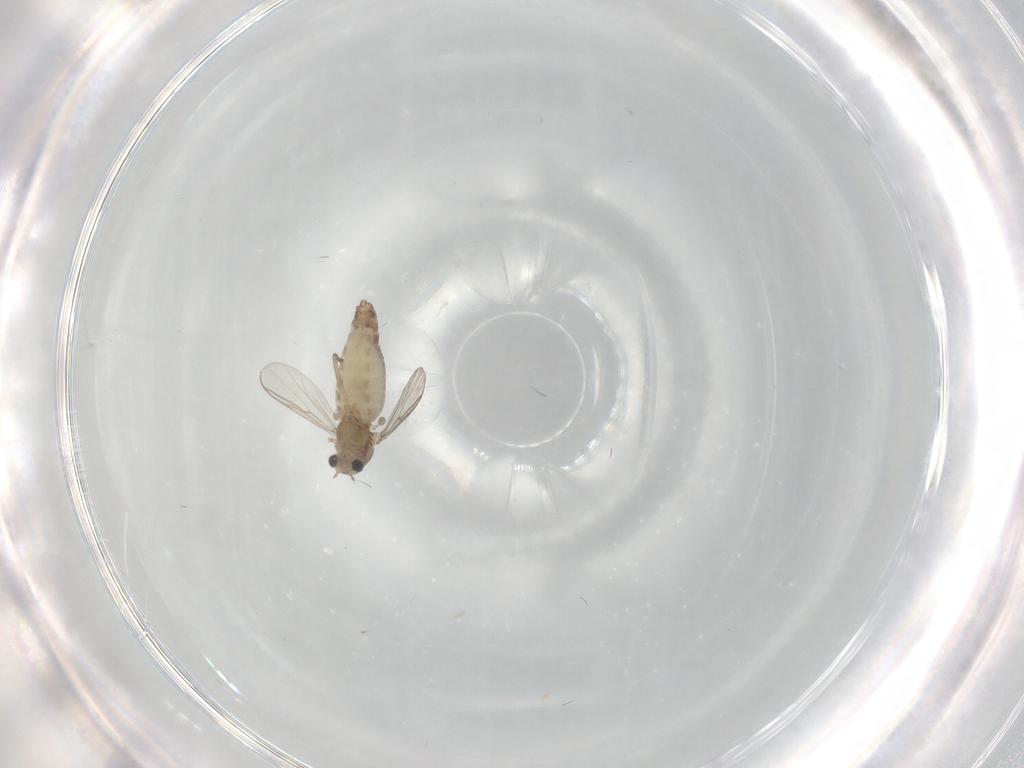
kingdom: Animalia
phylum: Arthropoda
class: Insecta
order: Diptera
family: Chironomidae
